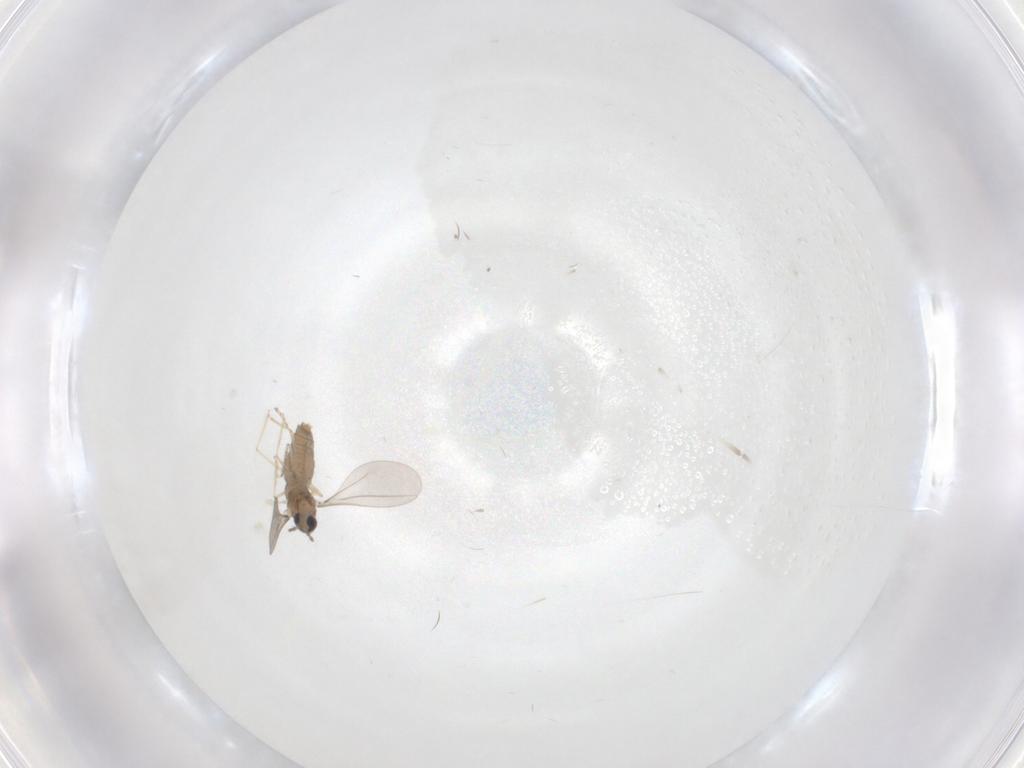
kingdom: Animalia
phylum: Arthropoda
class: Insecta
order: Diptera
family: Cecidomyiidae
